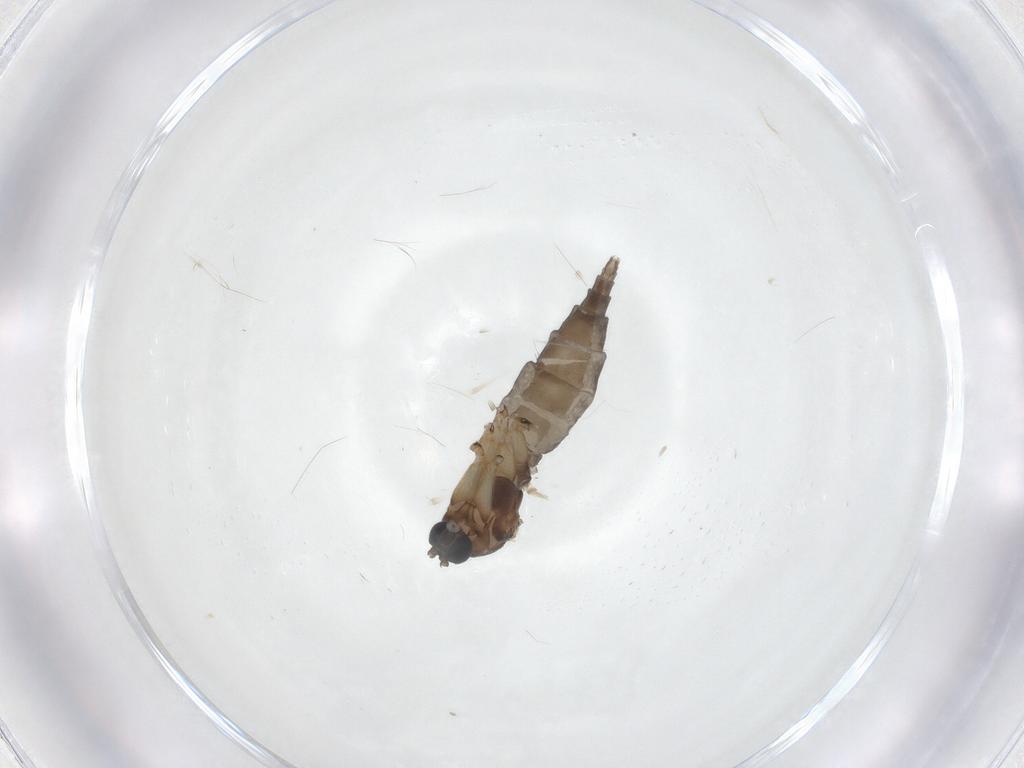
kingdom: Animalia
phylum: Arthropoda
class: Insecta
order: Diptera
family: Sciaridae
